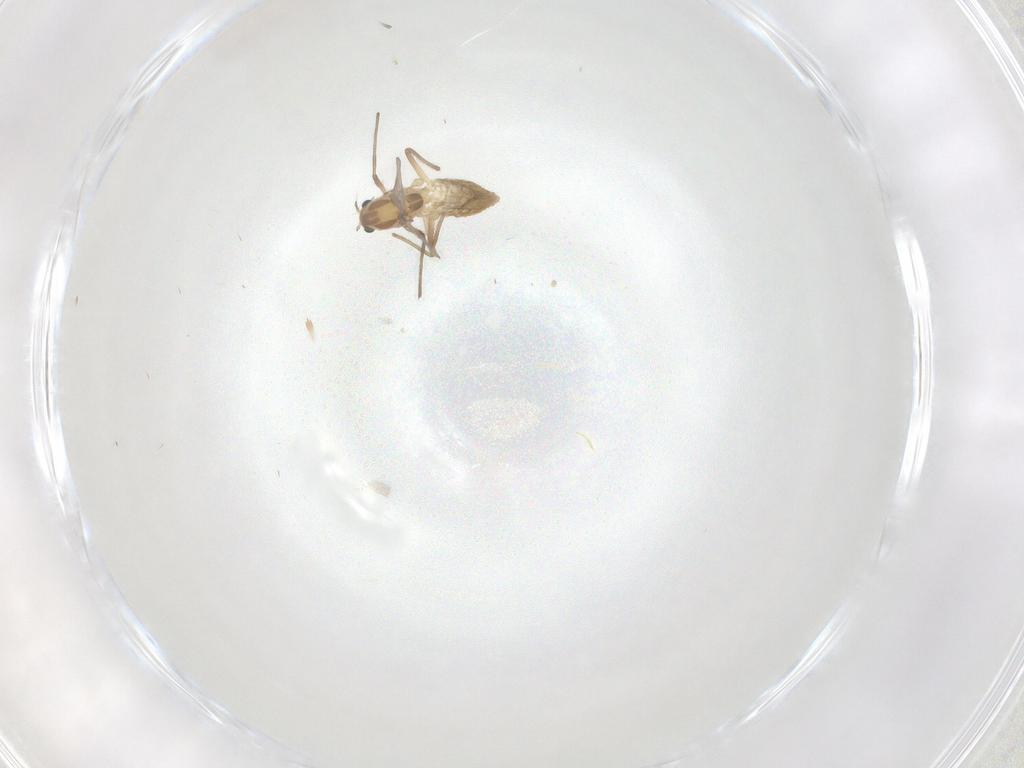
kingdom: Animalia
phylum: Arthropoda
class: Insecta
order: Diptera
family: Chironomidae
